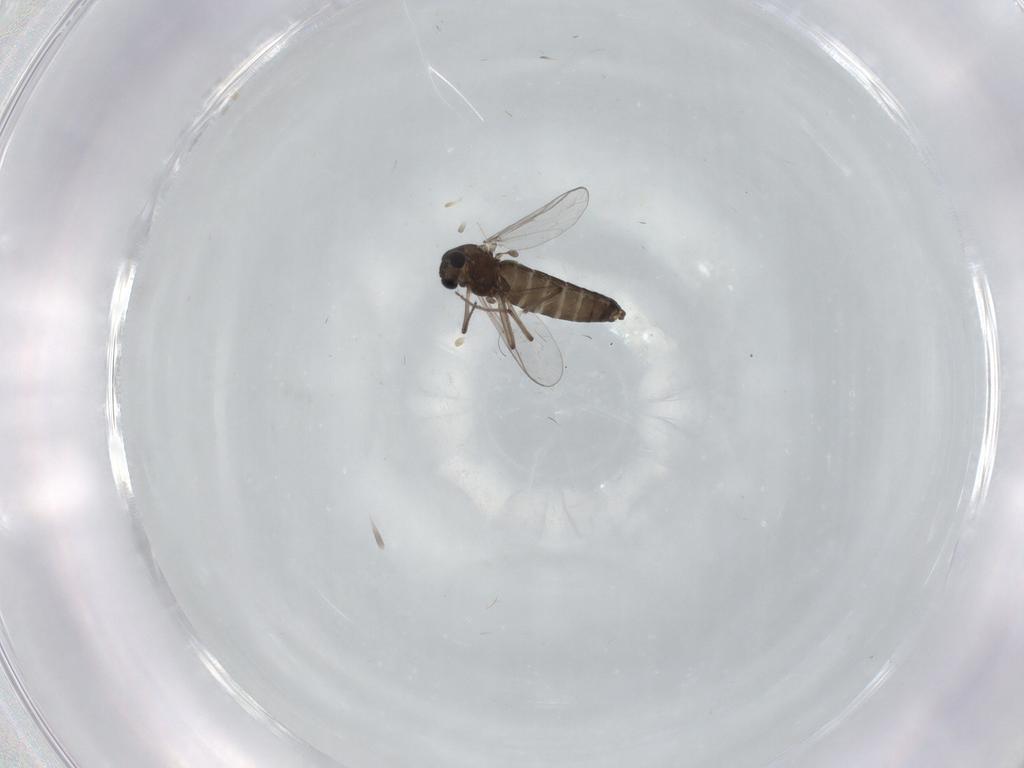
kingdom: Animalia
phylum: Arthropoda
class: Insecta
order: Diptera
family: Chironomidae
